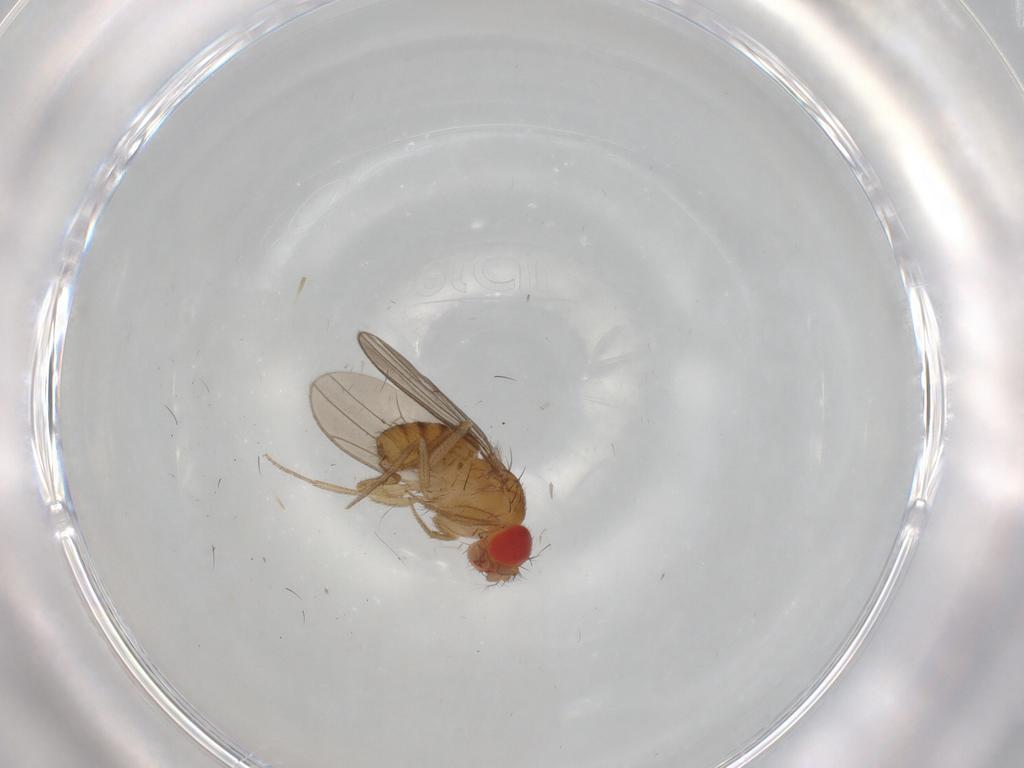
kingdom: Animalia
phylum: Arthropoda
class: Insecta
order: Diptera
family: Drosophilidae
